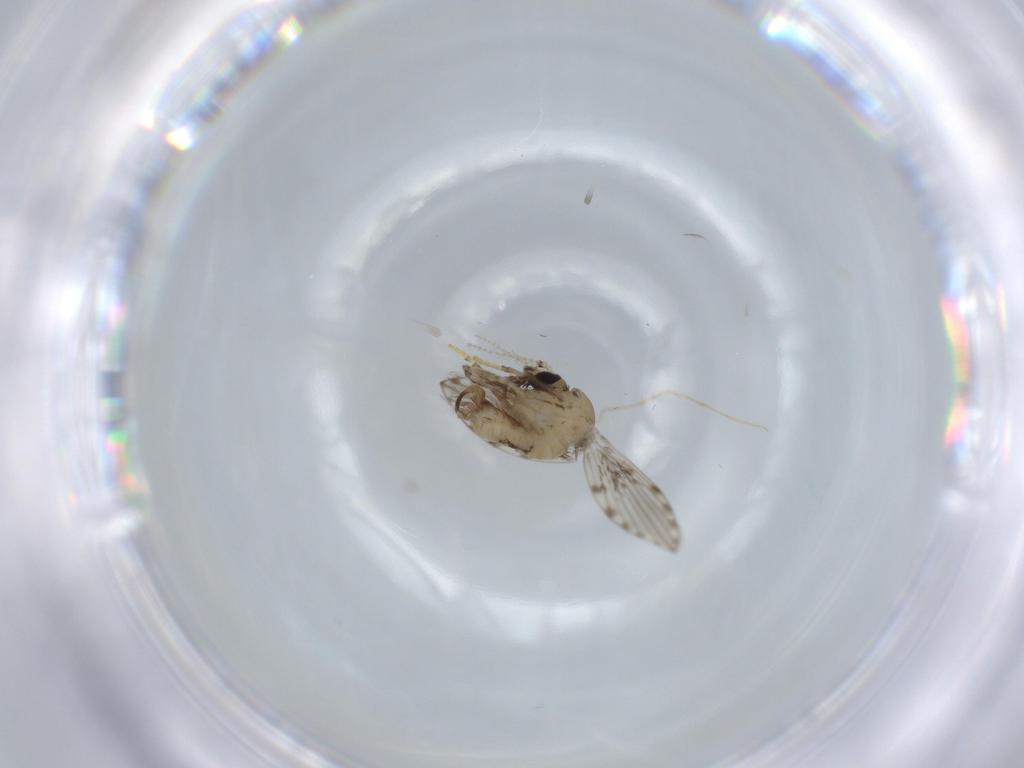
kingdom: Animalia
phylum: Arthropoda
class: Insecta
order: Diptera
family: Psychodidae
